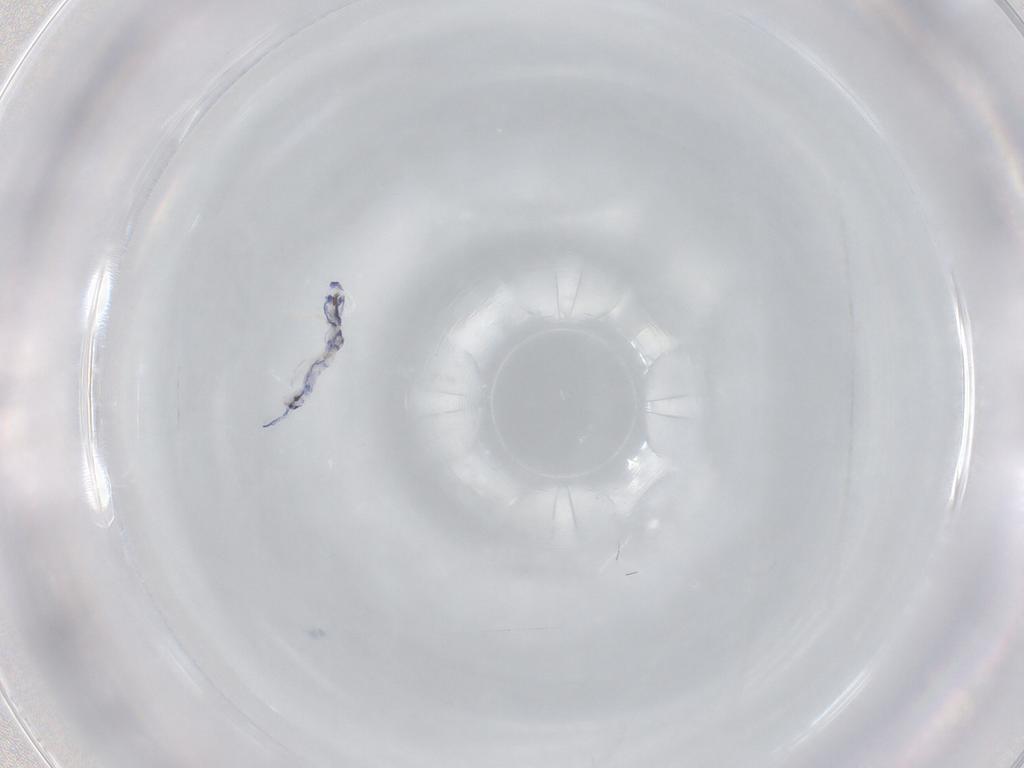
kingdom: Animalia
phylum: Arthropoda
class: Collembola
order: Entomobryomorpha
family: Entomobryidae
